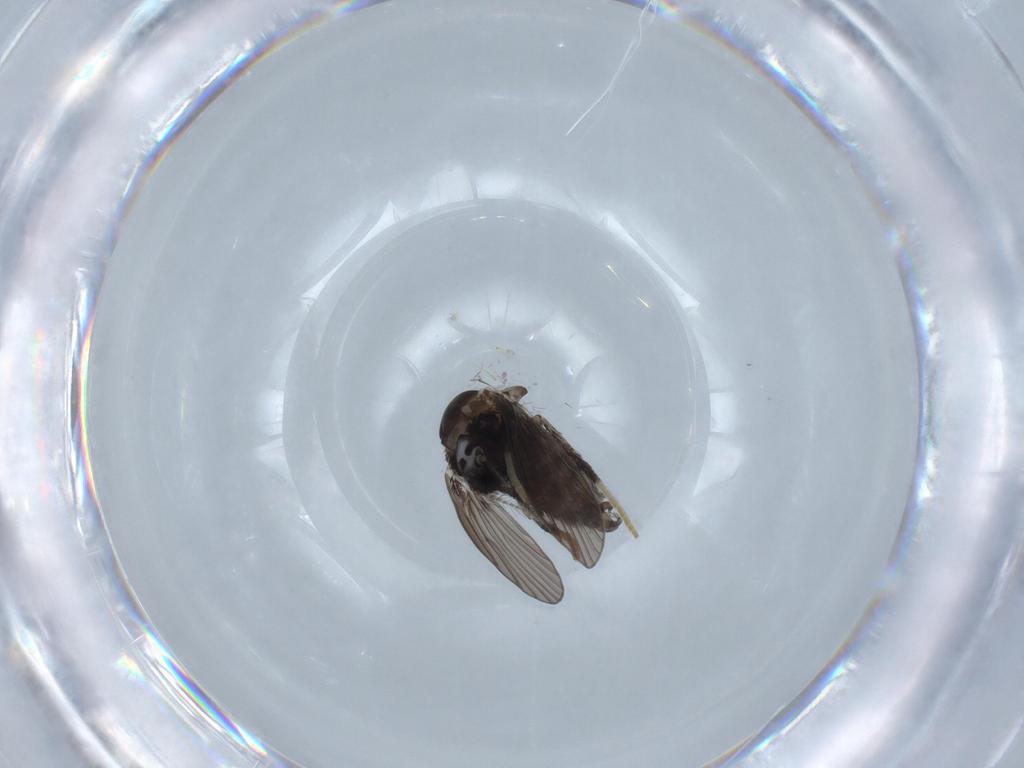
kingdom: Animalia
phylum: Arthropoda
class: Insecta
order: Diptera
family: Psychodidae
